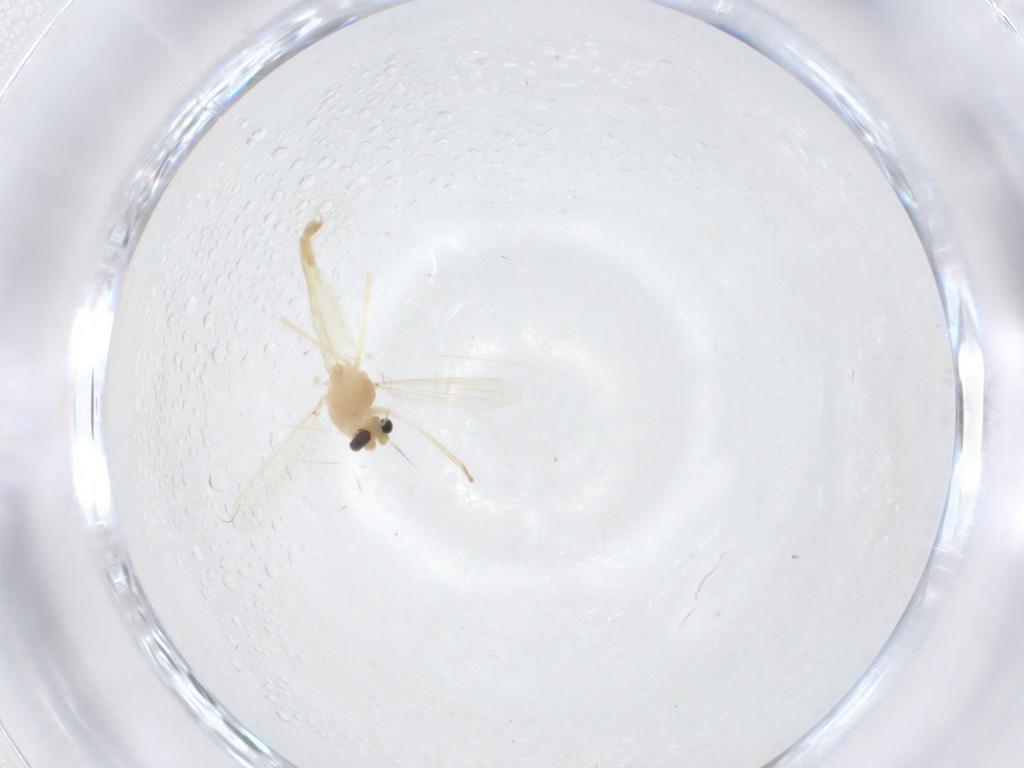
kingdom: Animalia
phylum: Arthropoda
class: Insecta
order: Diptera
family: Chironomidae
